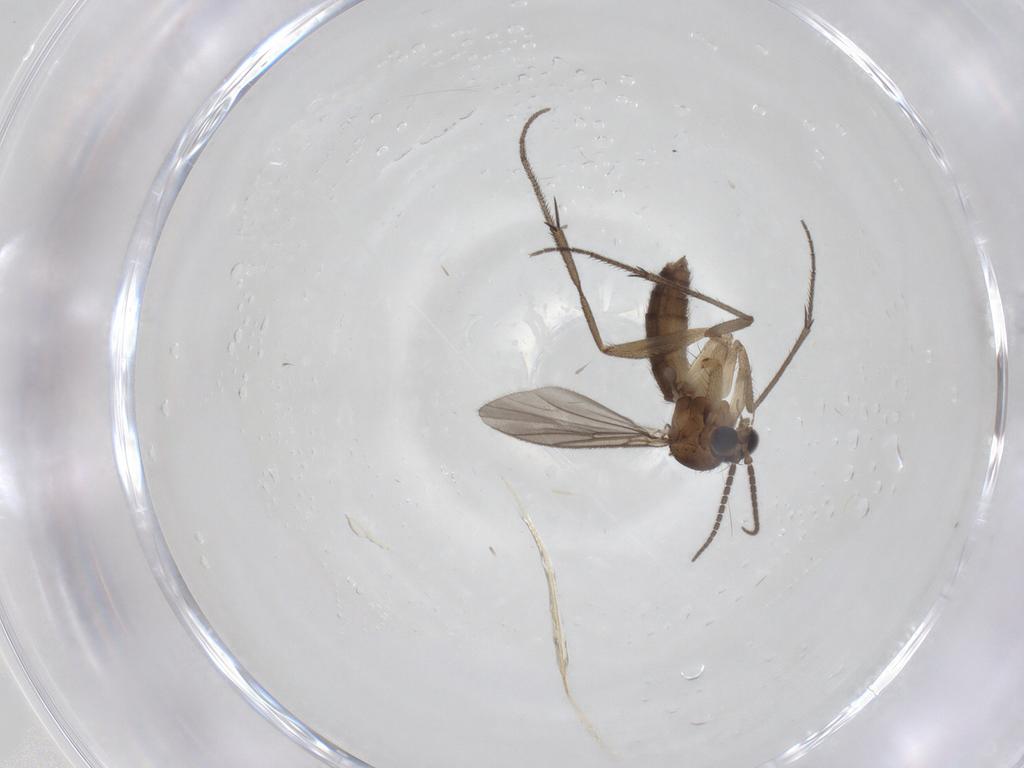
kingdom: Animalia
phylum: Arthropoda
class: Insecta
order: Diptera
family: Mycetophilidae
